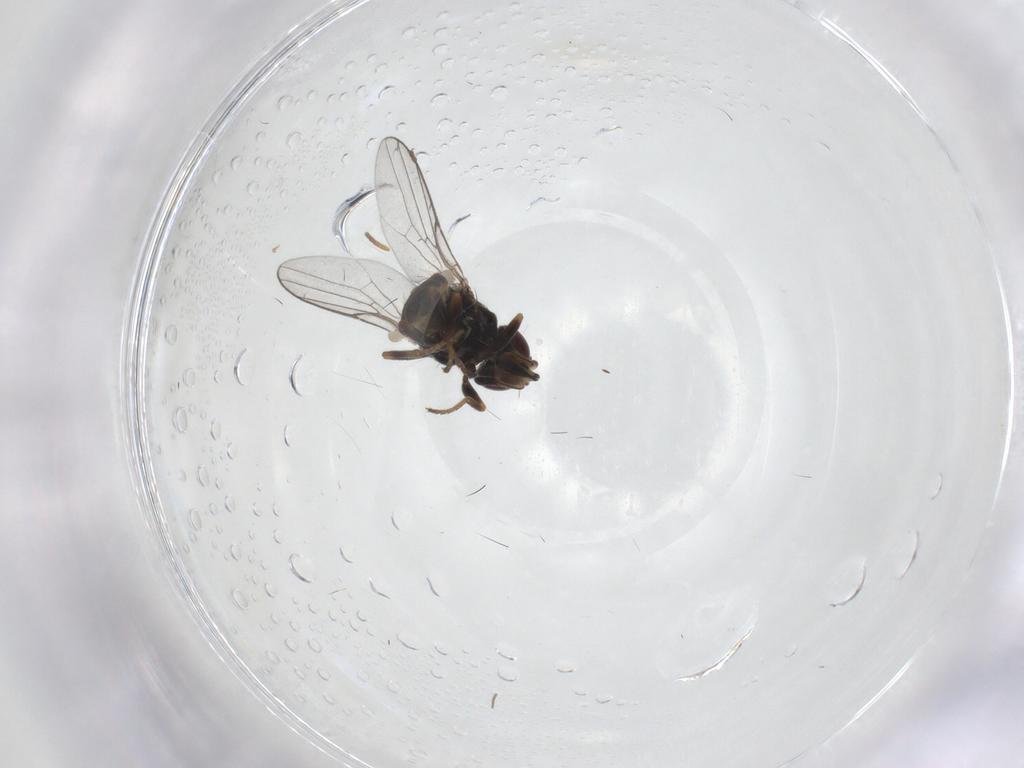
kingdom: Animalia
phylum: Arthropoda
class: Insecta
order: Diptera
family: Chloropidae
